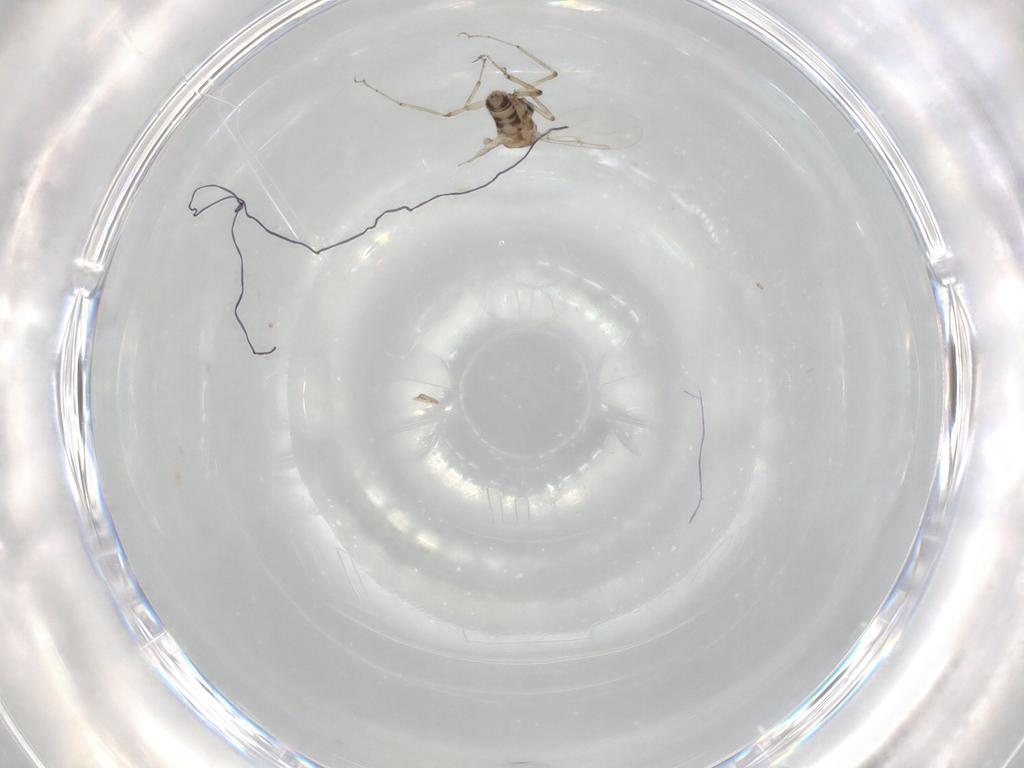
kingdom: Animalia
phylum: Arthropoda
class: Insecta
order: Diptera
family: Ceratopogonidae
